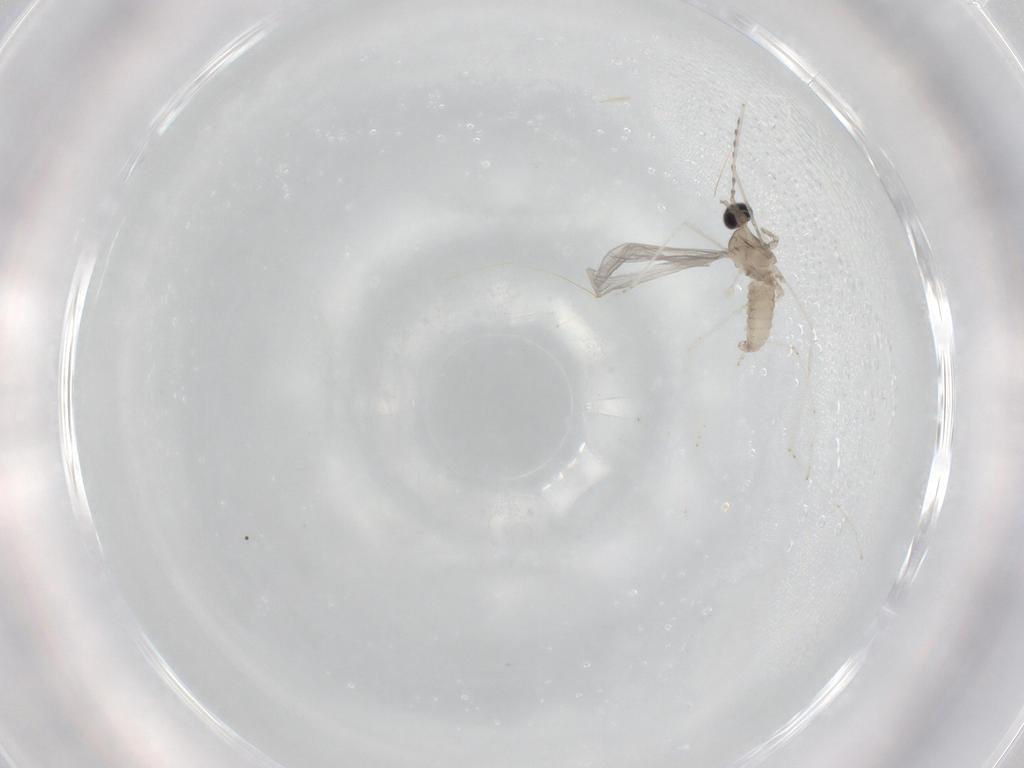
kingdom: Animalia
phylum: Arthropoda
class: Insecta
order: Diptera
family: Cecidomyiidae
